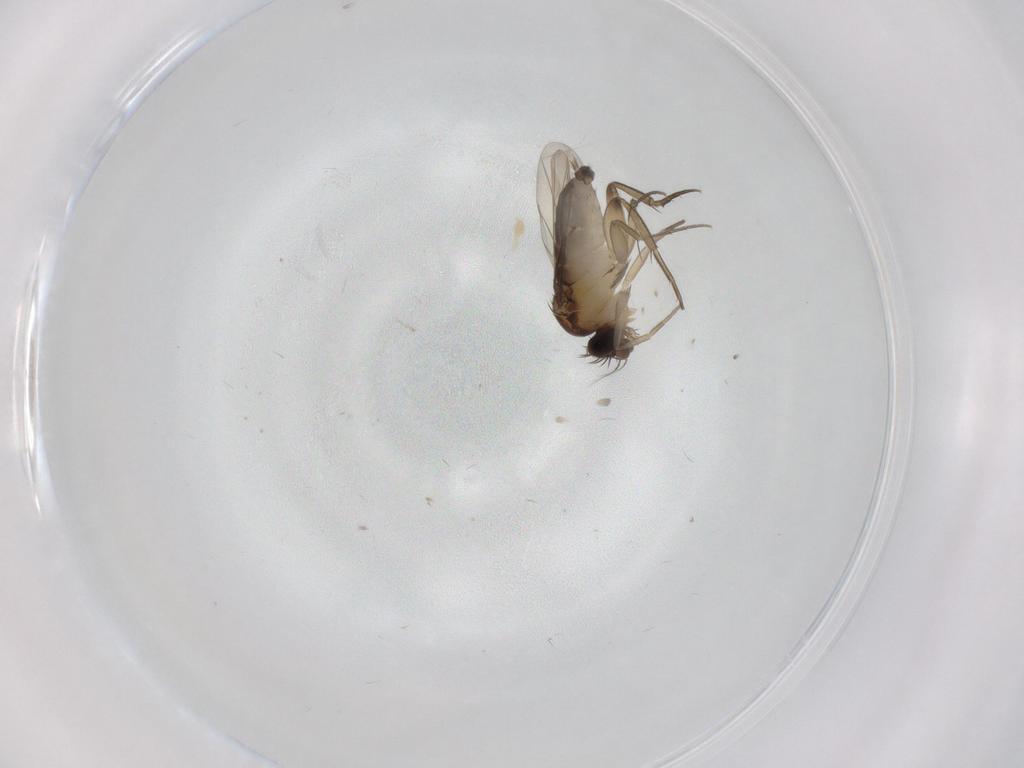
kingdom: Animalia
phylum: Arthropoda
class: Insecta
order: Diptera
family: Phoridae
